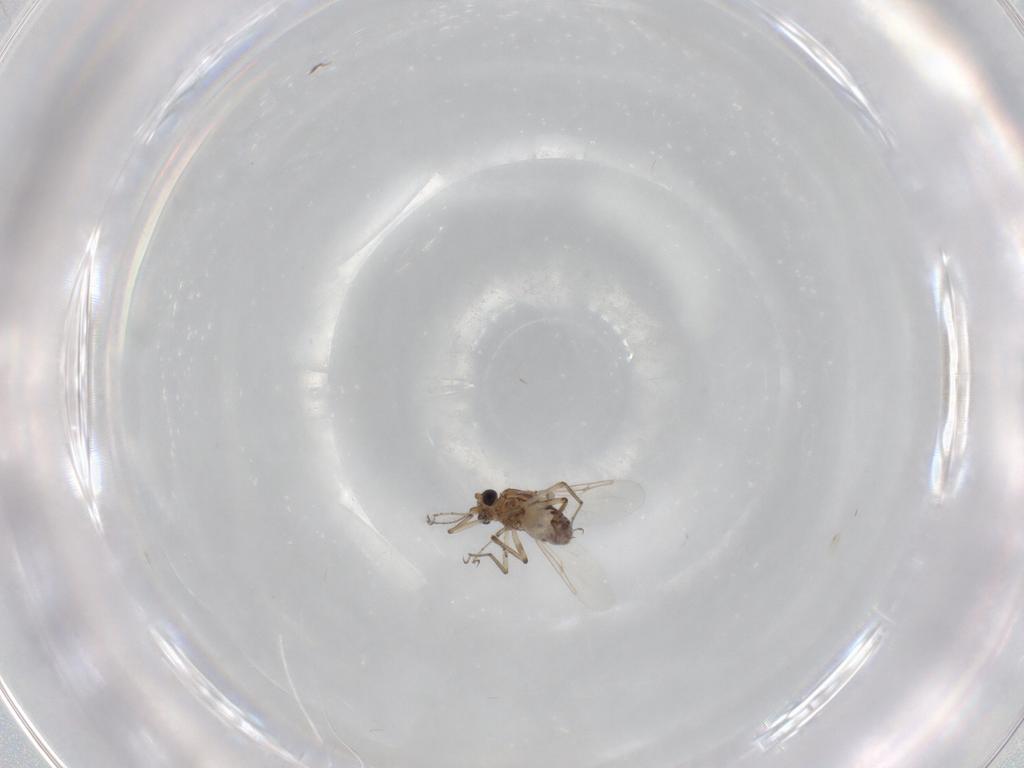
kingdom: Animalia
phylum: Arthropoda
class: Insecta
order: Diptera
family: Ceratopogonidae
